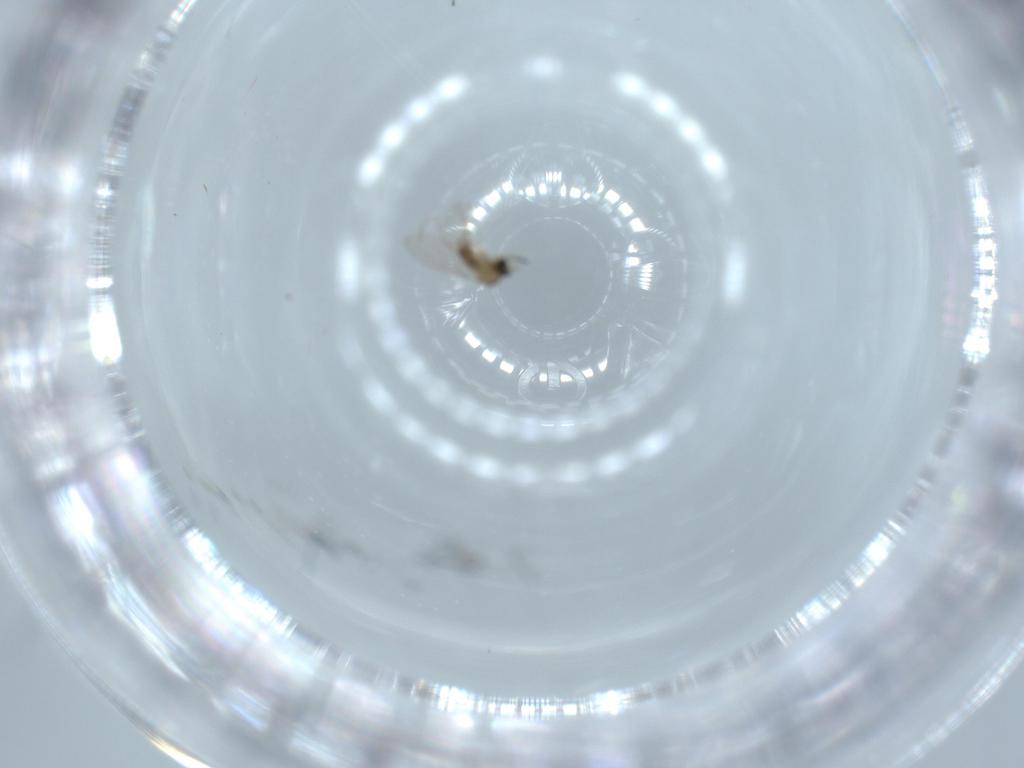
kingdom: Animalia
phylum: Arthropoda
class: Insecta
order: Diptera
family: Cecidomyiidae
